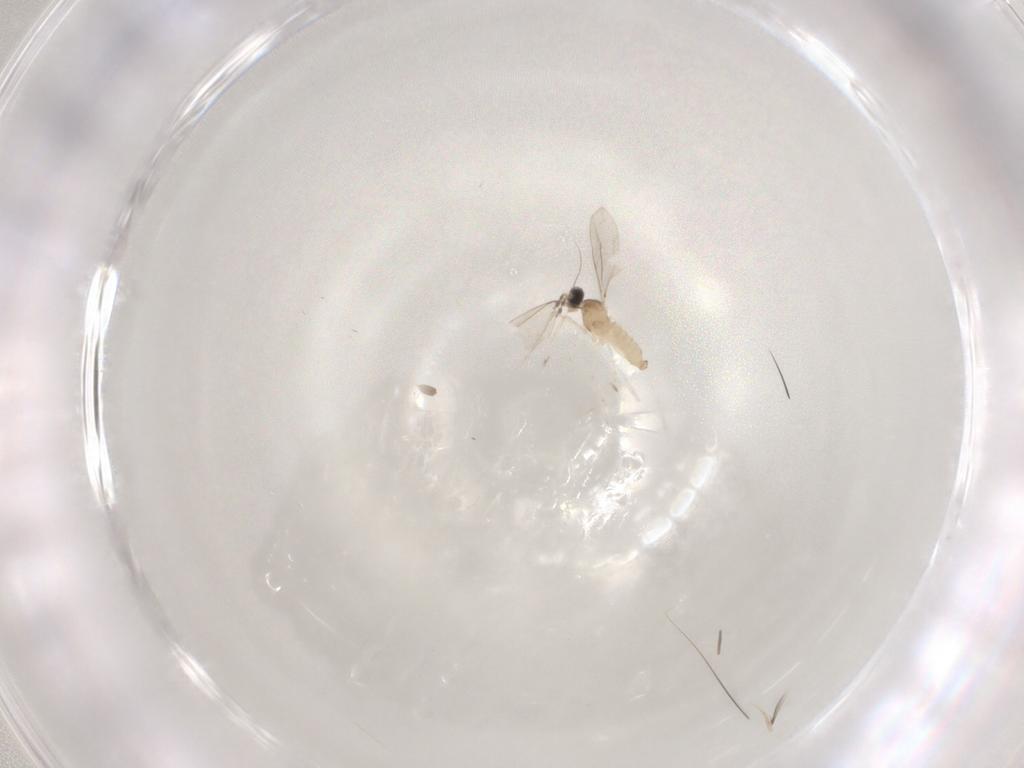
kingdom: Animalia
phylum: Arthropoda
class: Insecta
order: Diptera
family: Cecidomyiidae
